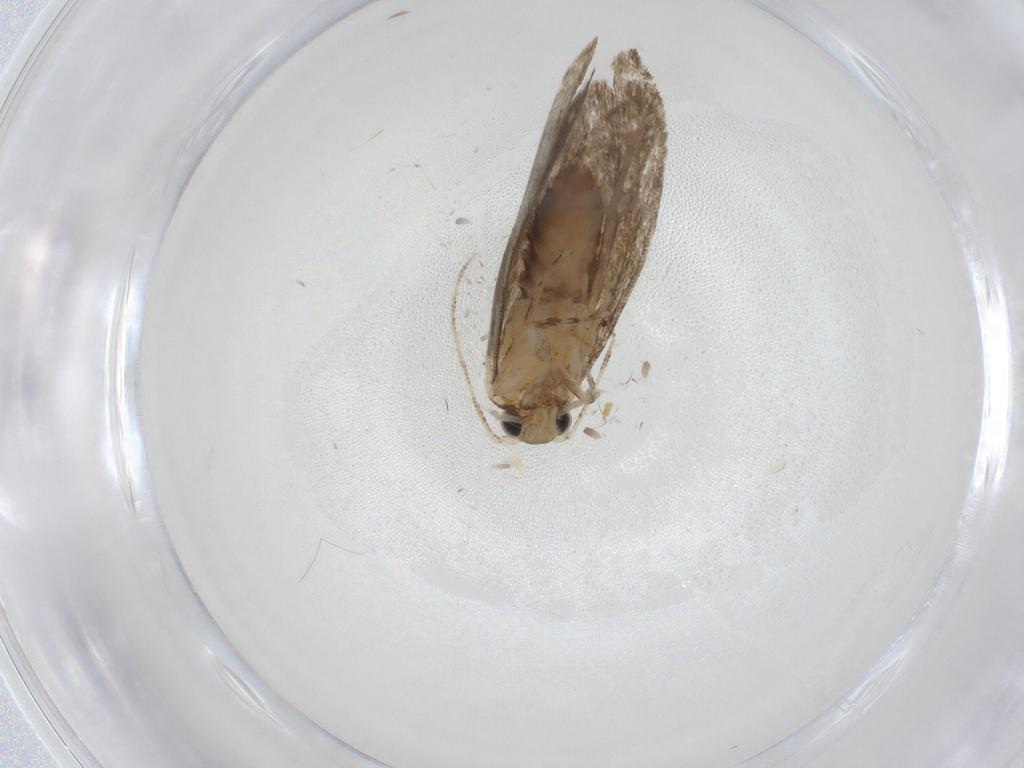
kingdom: Animalia
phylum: Arthropoda
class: Insecta
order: Lepidoptera
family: Tineidae
